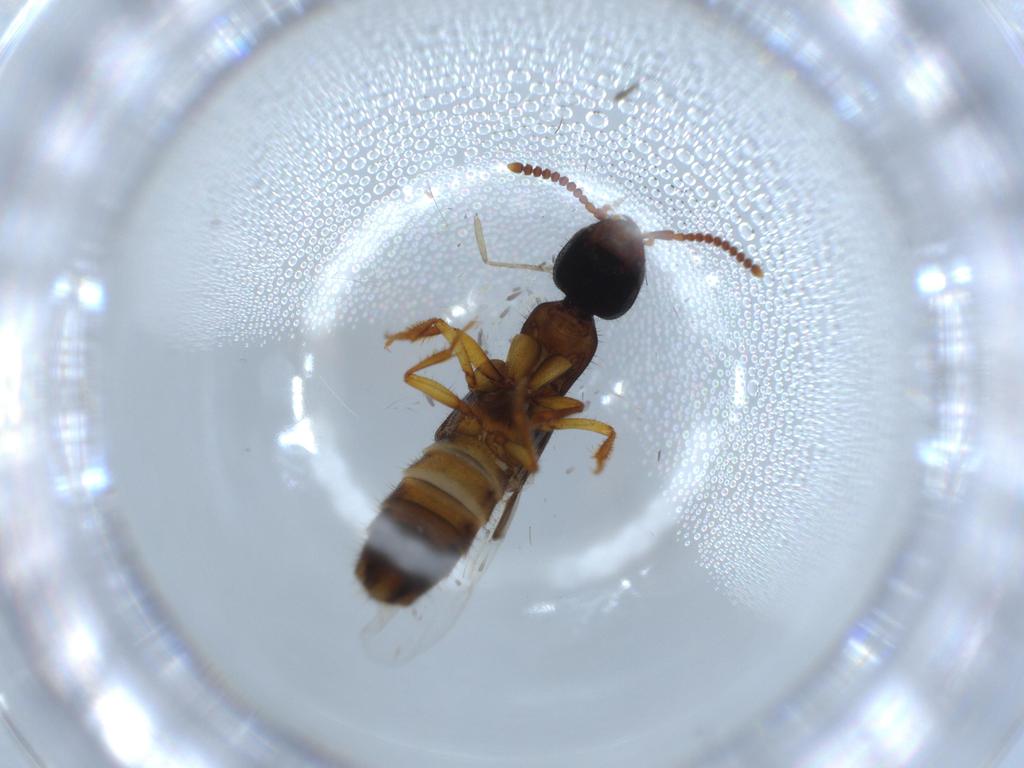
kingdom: Animalia
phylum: Arthropoda
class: Insecta
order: Coleoptera
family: Staphylinidae
